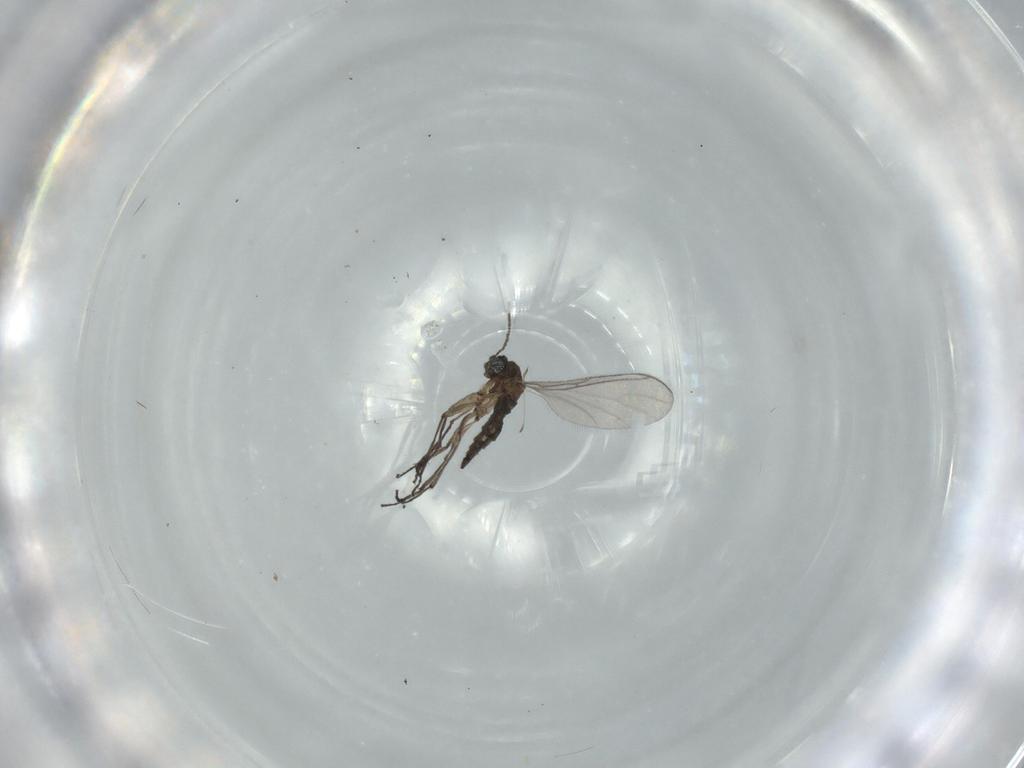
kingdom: Animalia
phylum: Arthropoda
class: Insecta
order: Diptera
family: Sciaridae
